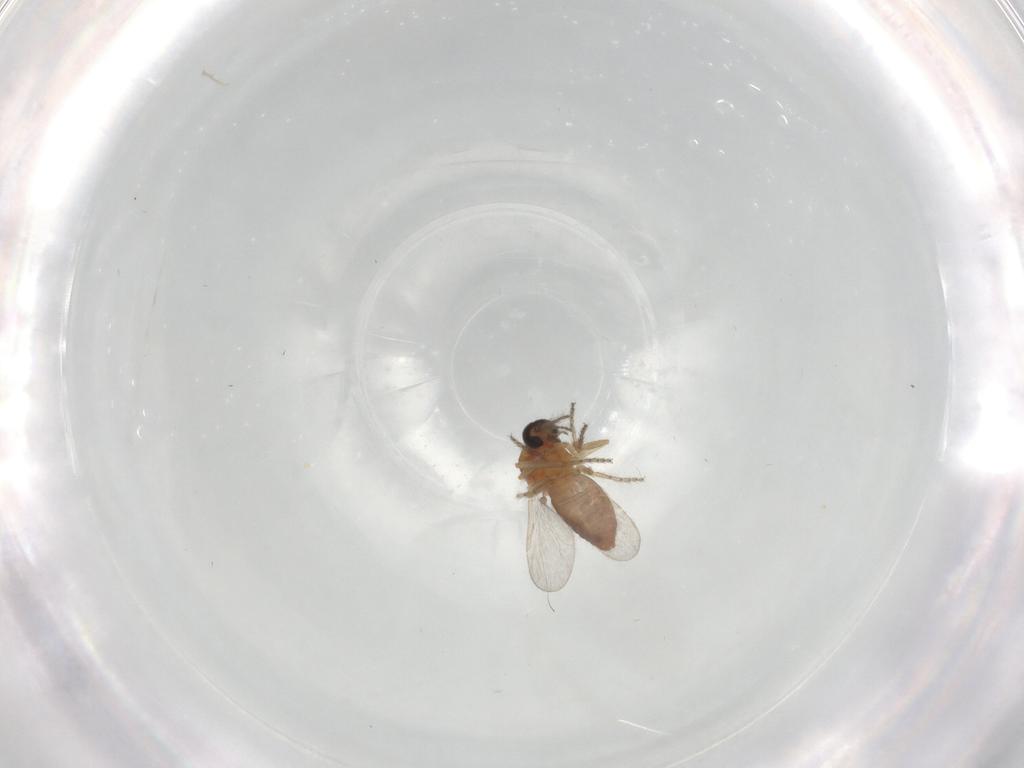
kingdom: Animalia
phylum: Arthropoda
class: Insecta
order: Diptera
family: Ceratopogonidae
